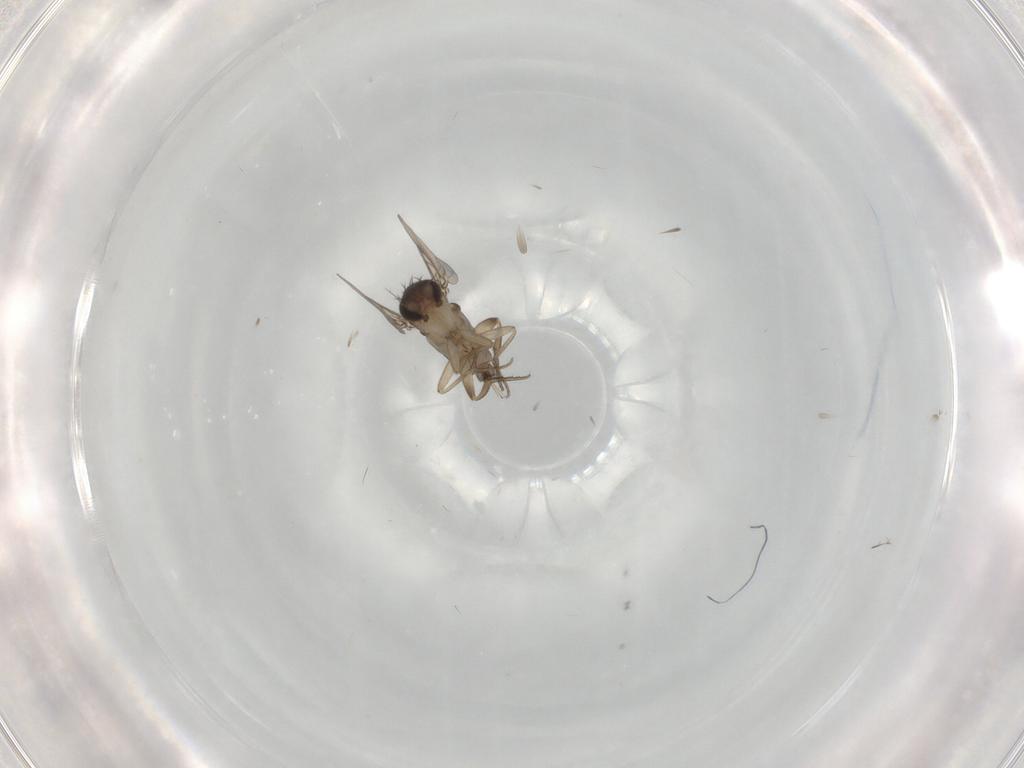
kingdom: Animalia
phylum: Arthropoda
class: Insecta
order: Diptera
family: Phoridae
